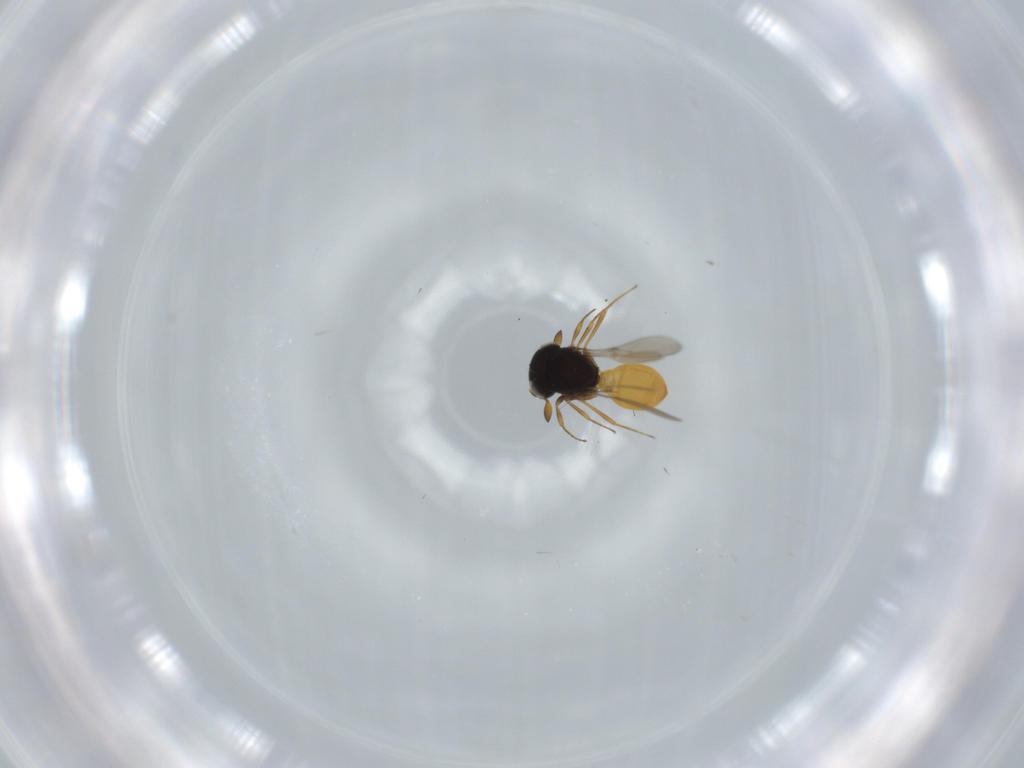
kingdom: Animalia
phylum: Arthropoda
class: Insecta
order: Hymenoptera
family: Scelionidae
